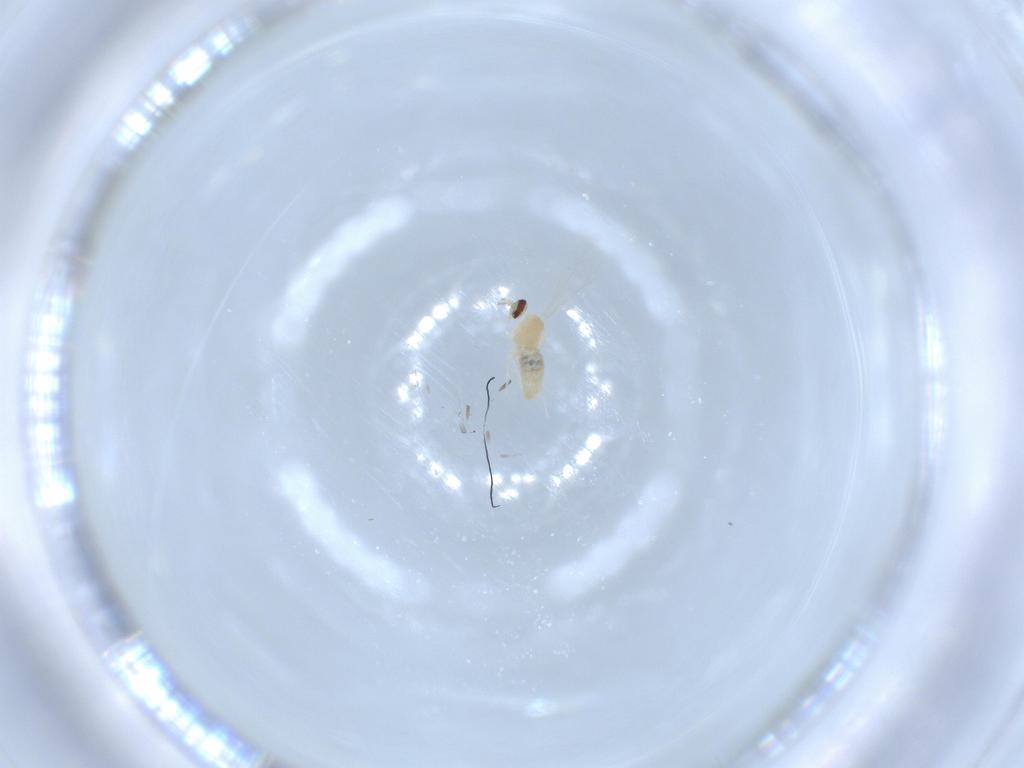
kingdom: Animalia
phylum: Arthropoda
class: Insecta
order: Diptera
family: Cecidomyiidae
